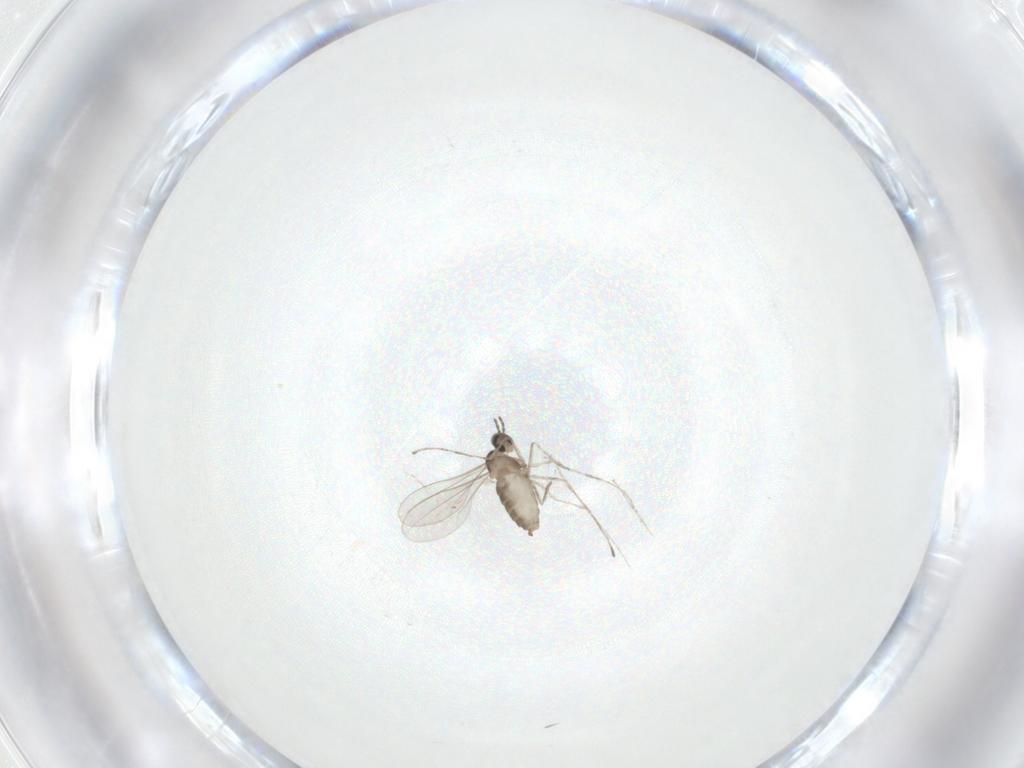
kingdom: Animalia
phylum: Arthropoda
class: Insecta
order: Diptera
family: Cecidomyiidae
